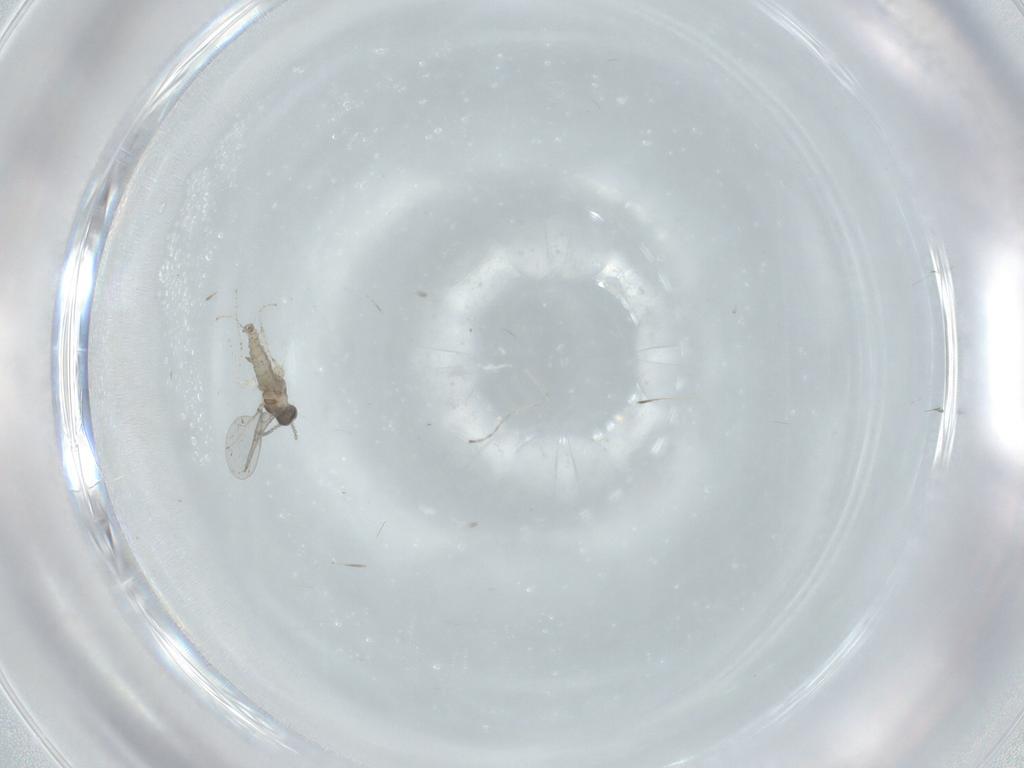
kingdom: Animalia
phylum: Arthropoda
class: Insecta
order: Diptera
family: Cecidomyiidae
